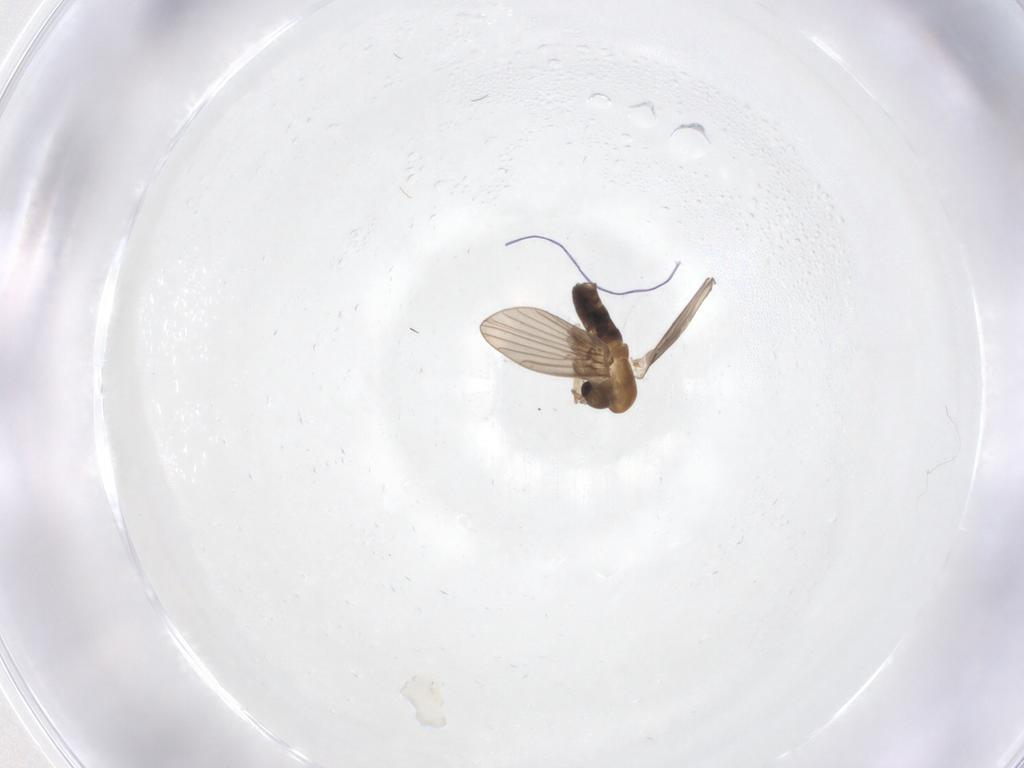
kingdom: Animalia
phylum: Arthropoda
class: Insecta
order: Diptera
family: Psychodidae
